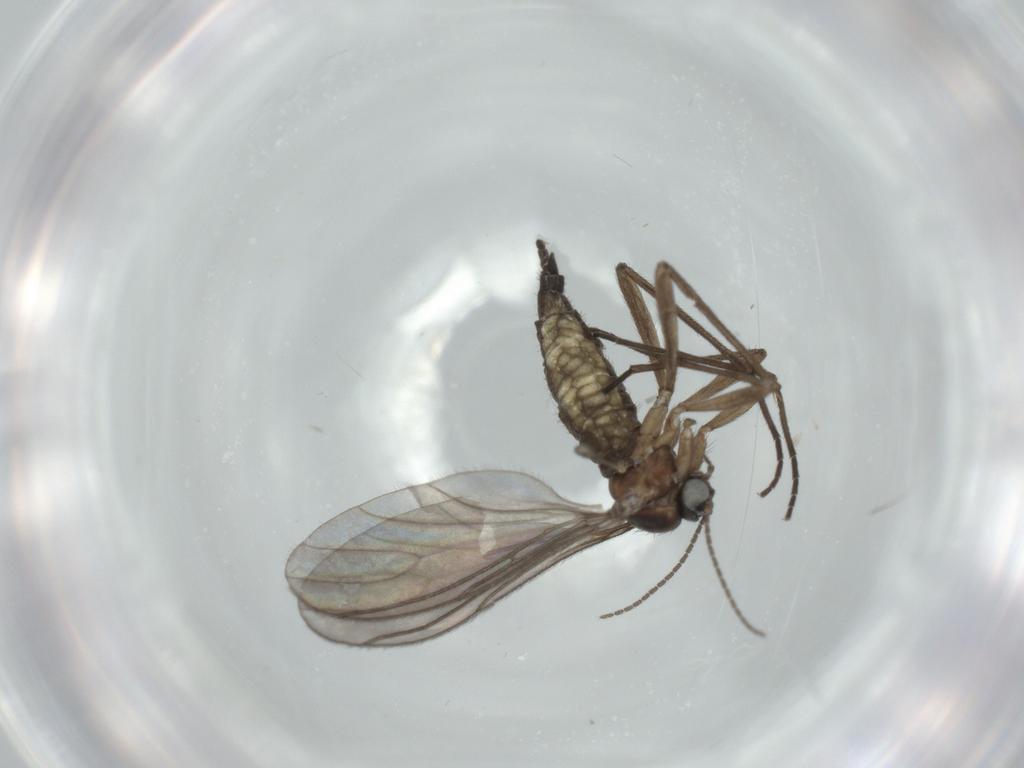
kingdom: Animalia
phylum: Arthropoda
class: Insecta
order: Diptera
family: Sciaridae
